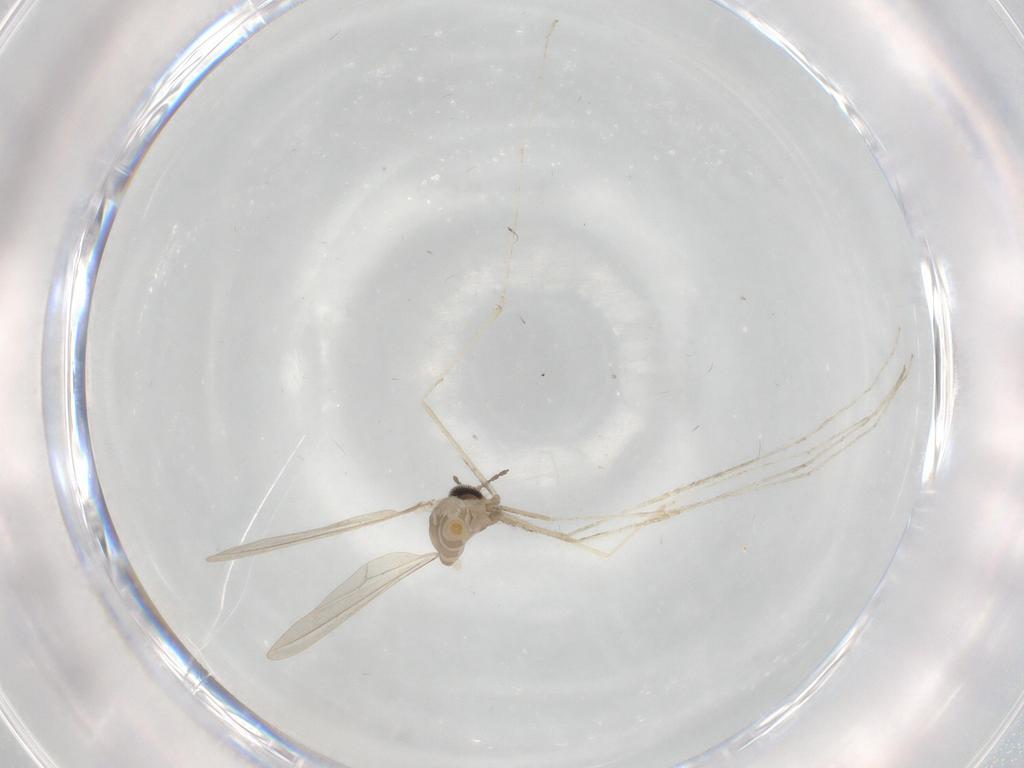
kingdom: Animalia
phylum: Arthropoda
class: Insecta
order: Diptera
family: Cecidomyiidae
